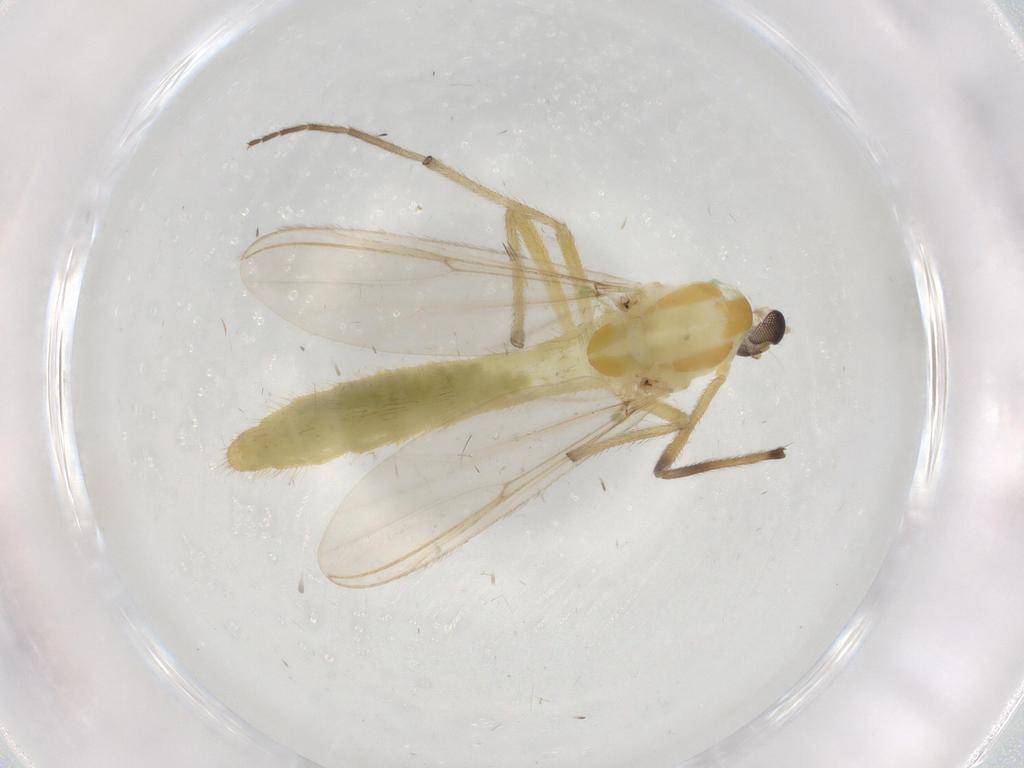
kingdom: Animalia
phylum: Arthropoda
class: Insecta
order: Diptera
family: Chironomidae
